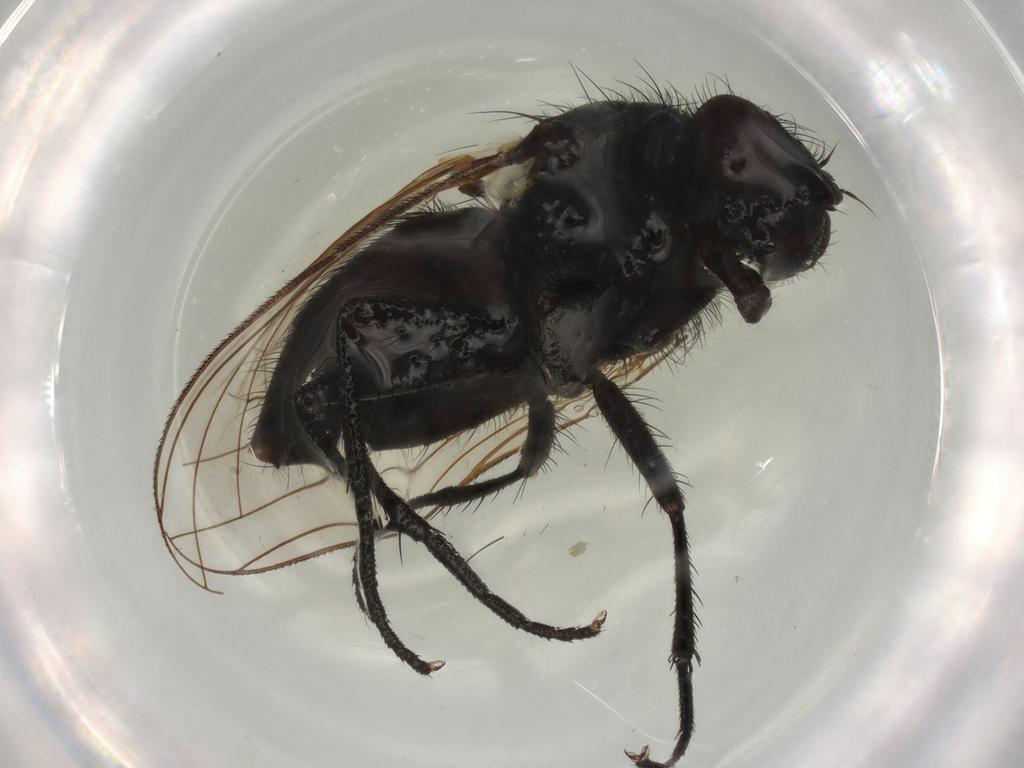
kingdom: Animalia
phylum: Arthropoda
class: Insecta
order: Diptera
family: Muscidae
